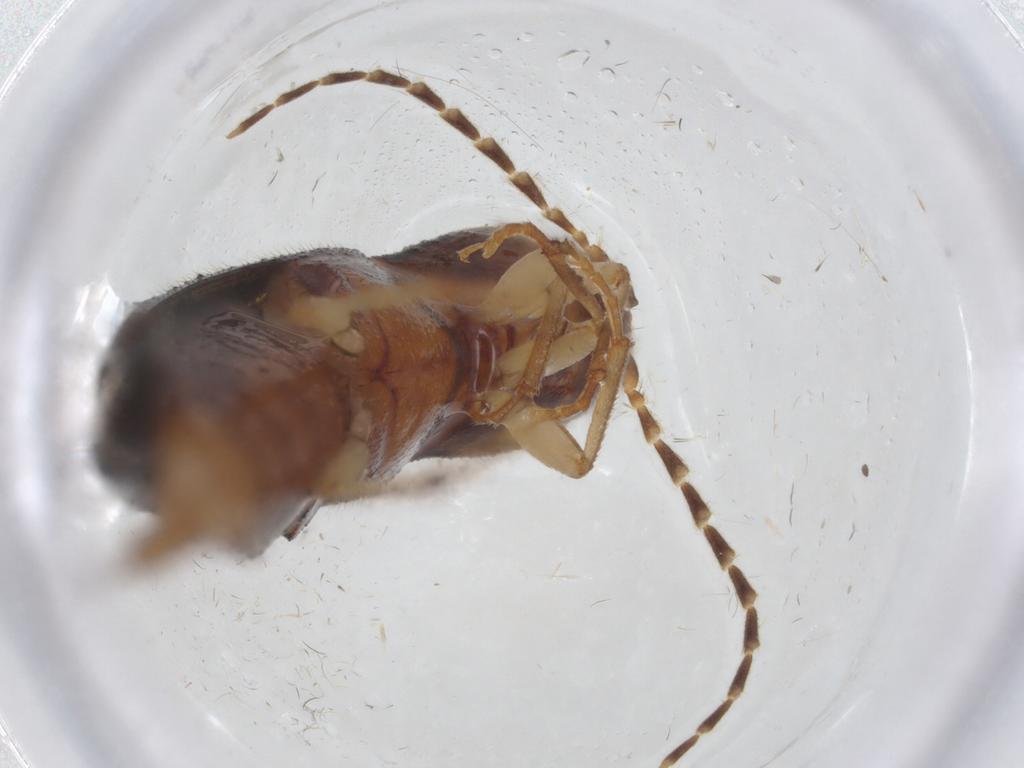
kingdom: Animalia
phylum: Arthropoda
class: Insecta
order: Coleoptera
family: Elateridae
